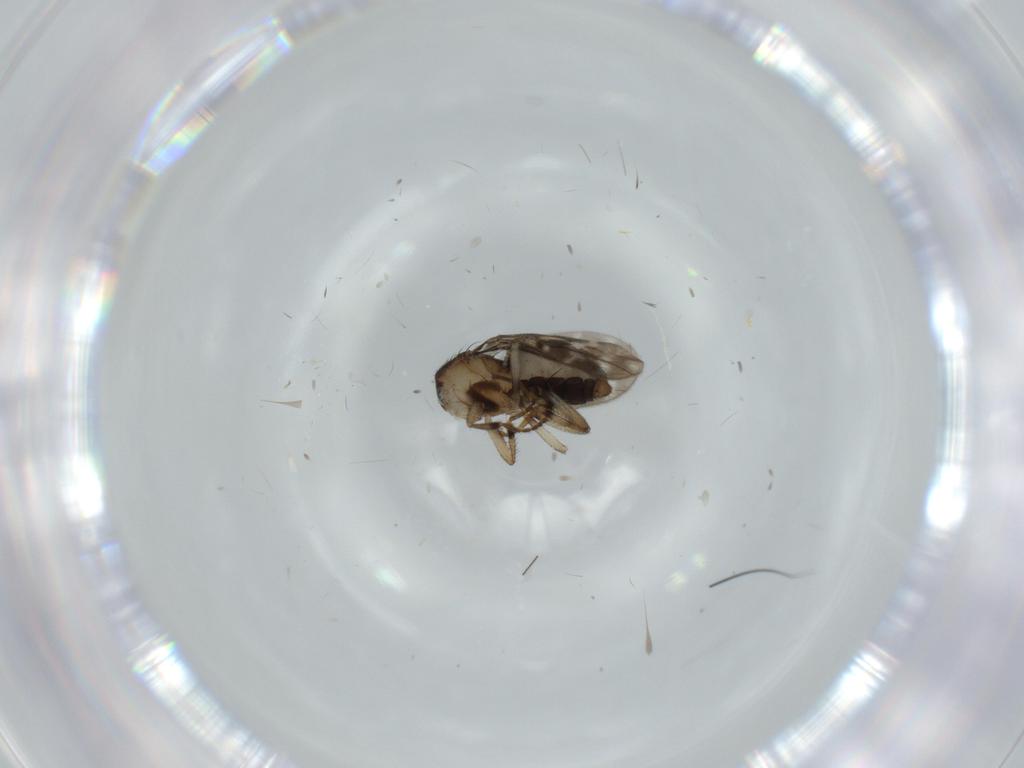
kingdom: Animalia
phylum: Arthropoda
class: Insecta
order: Diptera
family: Sphaeroceridae
